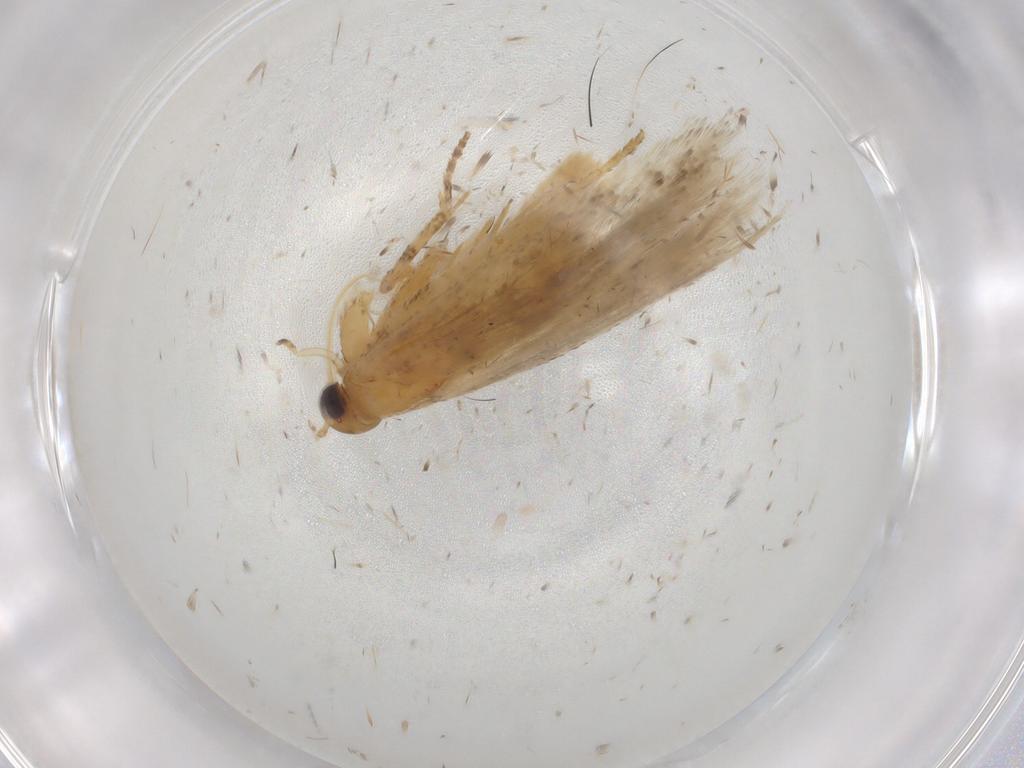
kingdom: Animalia
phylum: Arthropoda
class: Insecta
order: Lepidoptera
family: Gelechiidae
